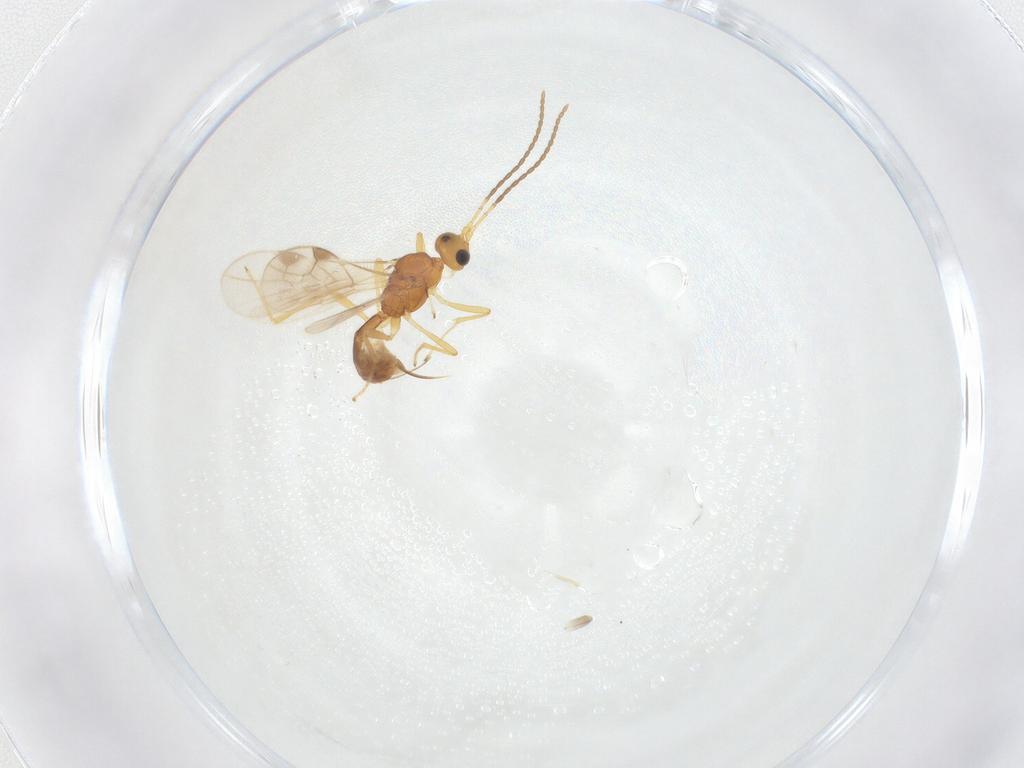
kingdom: Animalia
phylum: Arthropoda
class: Insecta
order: Hymenoptera
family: Braconidae
